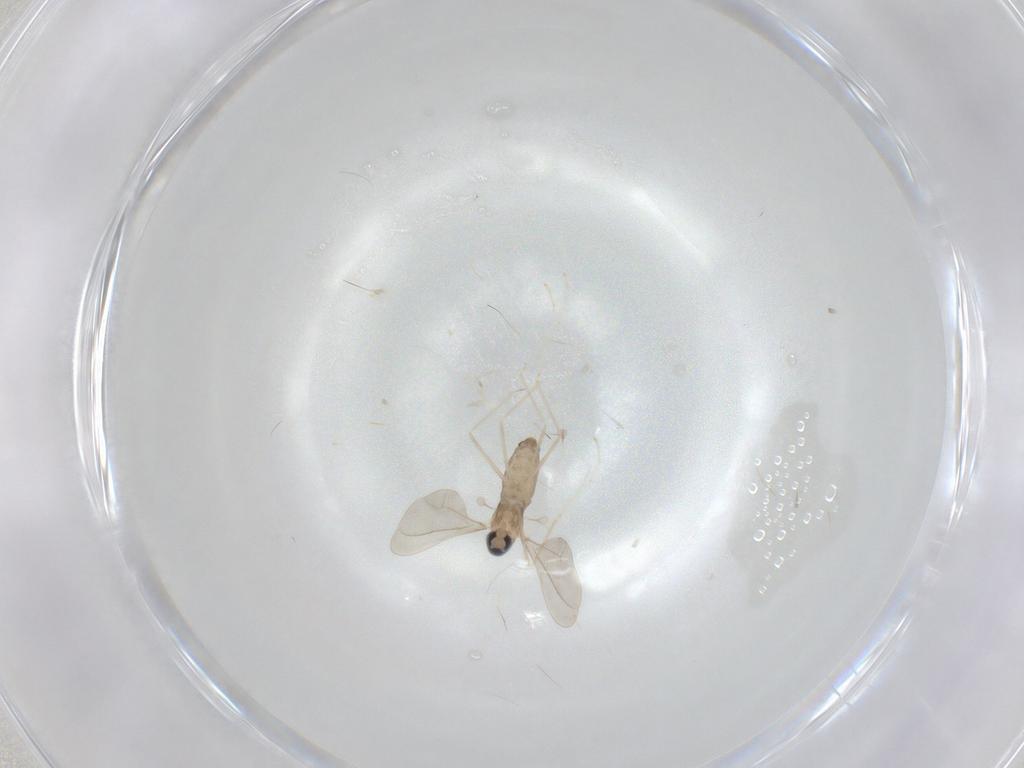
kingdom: Animalia
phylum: Arthropoda
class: Insecta
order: Diptera
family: Cecidomyiidae
